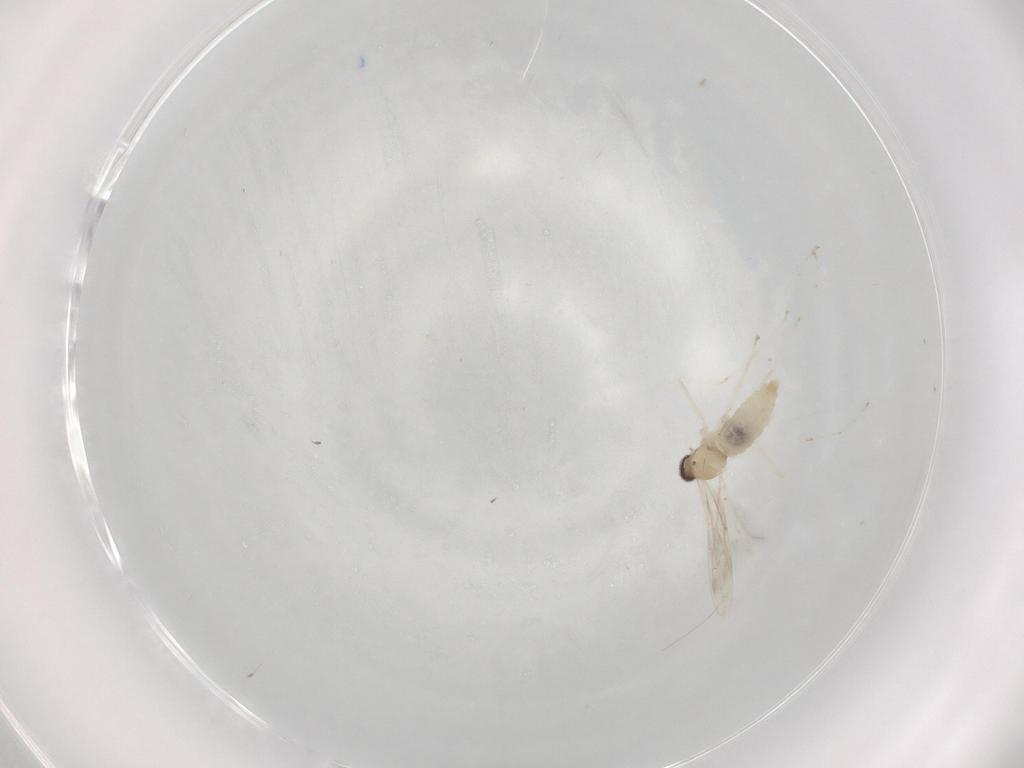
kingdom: Animalia
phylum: Arthropoda
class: Insecta
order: Diptera
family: Cecidomyiidae
